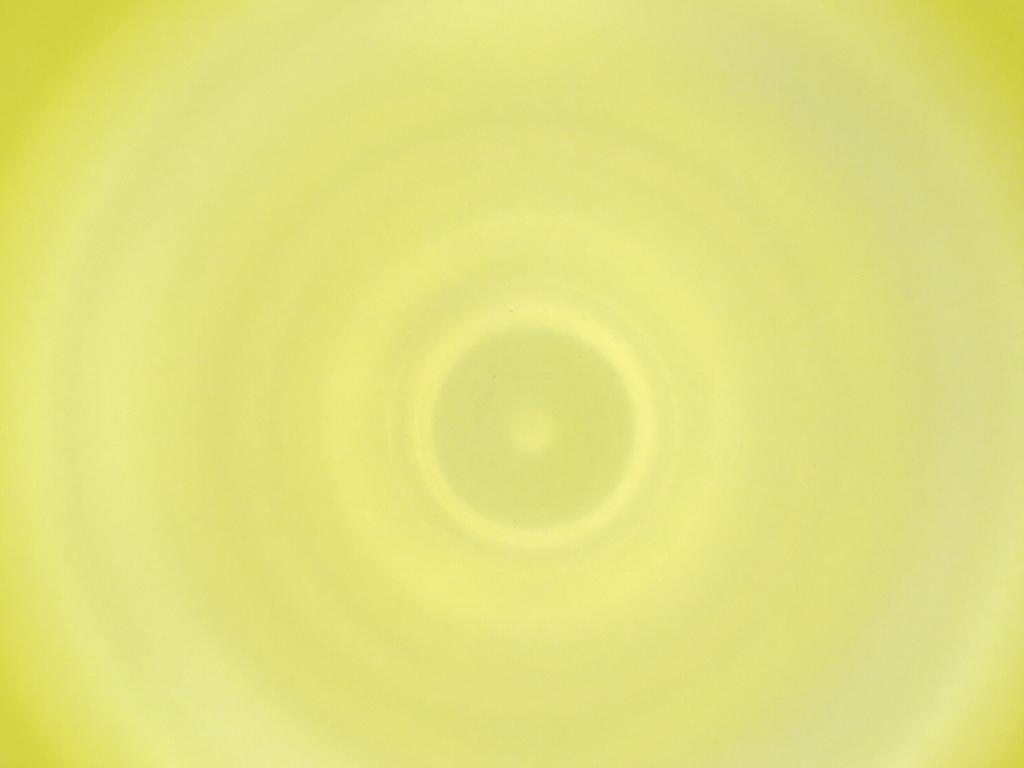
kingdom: Animalia
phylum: Arthropoda
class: Insecta
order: Diptera
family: Cecidomyiidae
